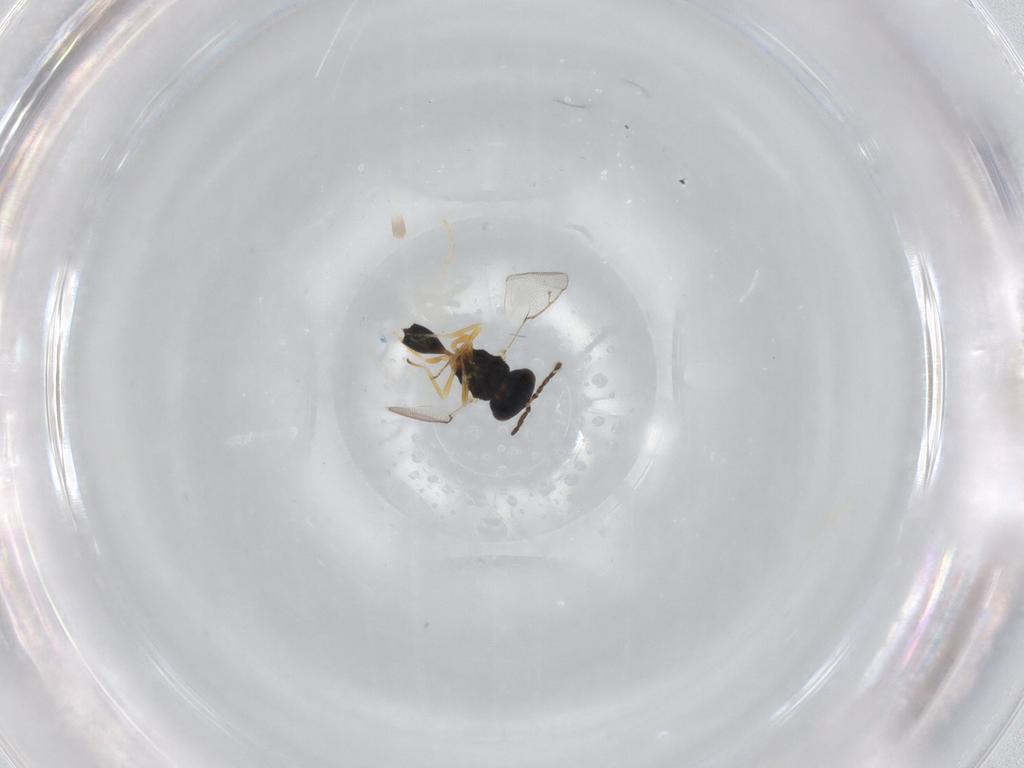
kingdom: Animalia
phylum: Arthropoda
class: Insecta
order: Hymenoptera
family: Pteromalidae
